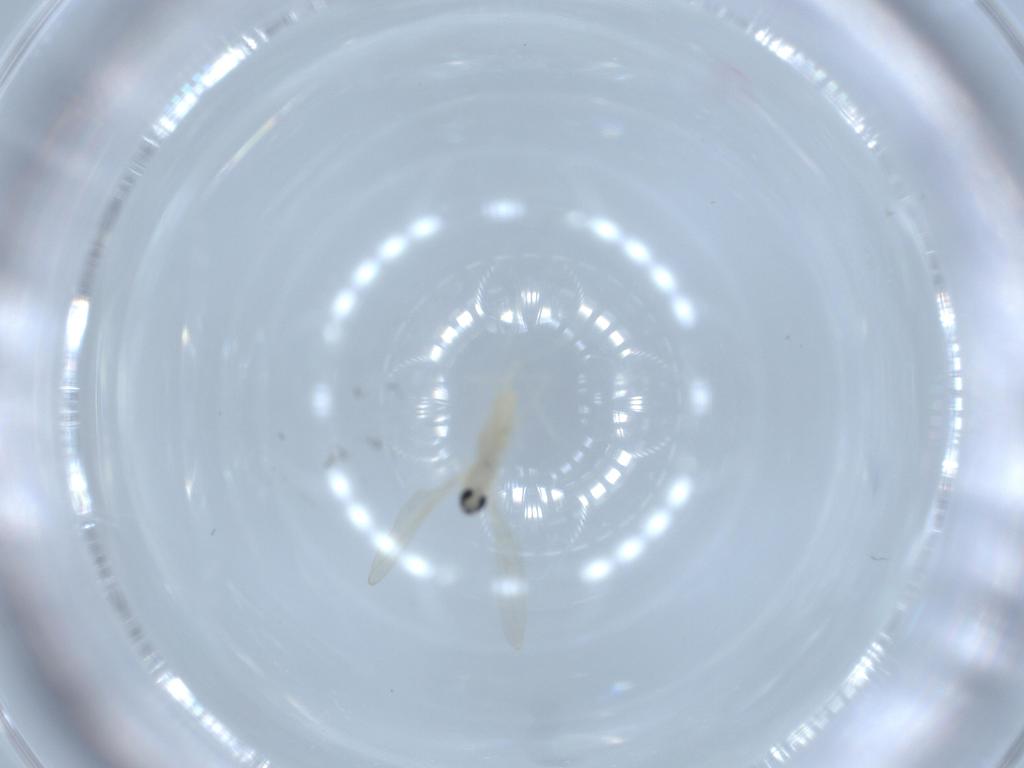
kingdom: Animalia
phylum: Arthropoda
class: Insecta
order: Diptera
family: Cecidomyiidae
